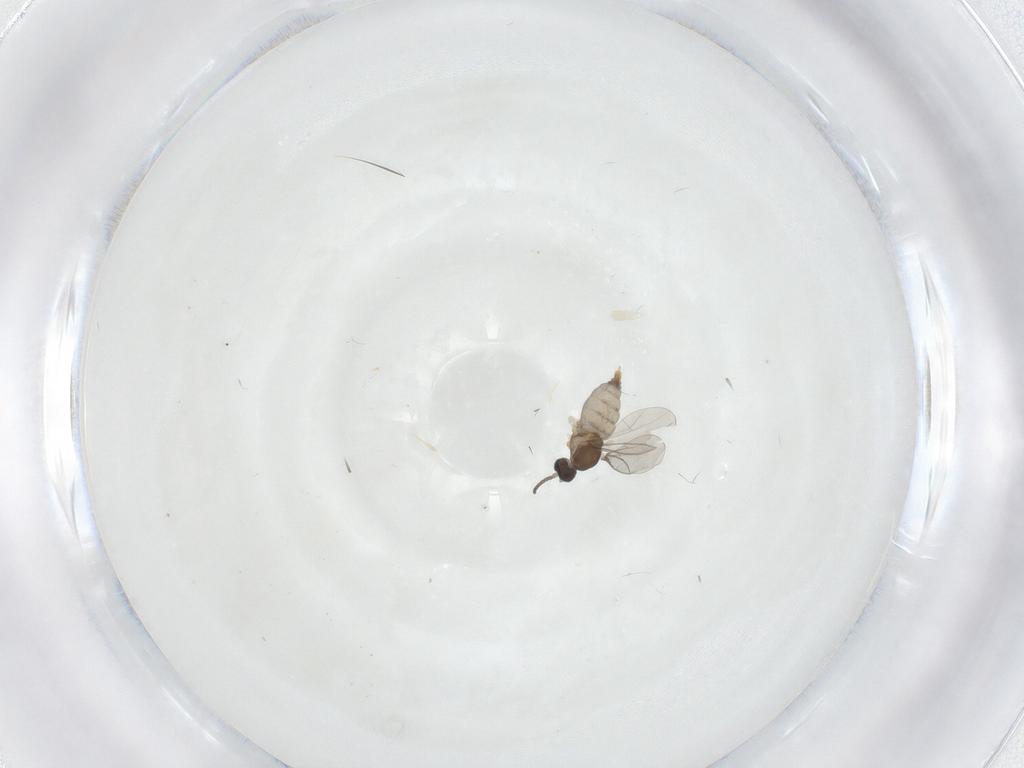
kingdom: Animalia
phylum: Arthropoda
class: Insecta
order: Diptera
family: Cecidomyiidae
